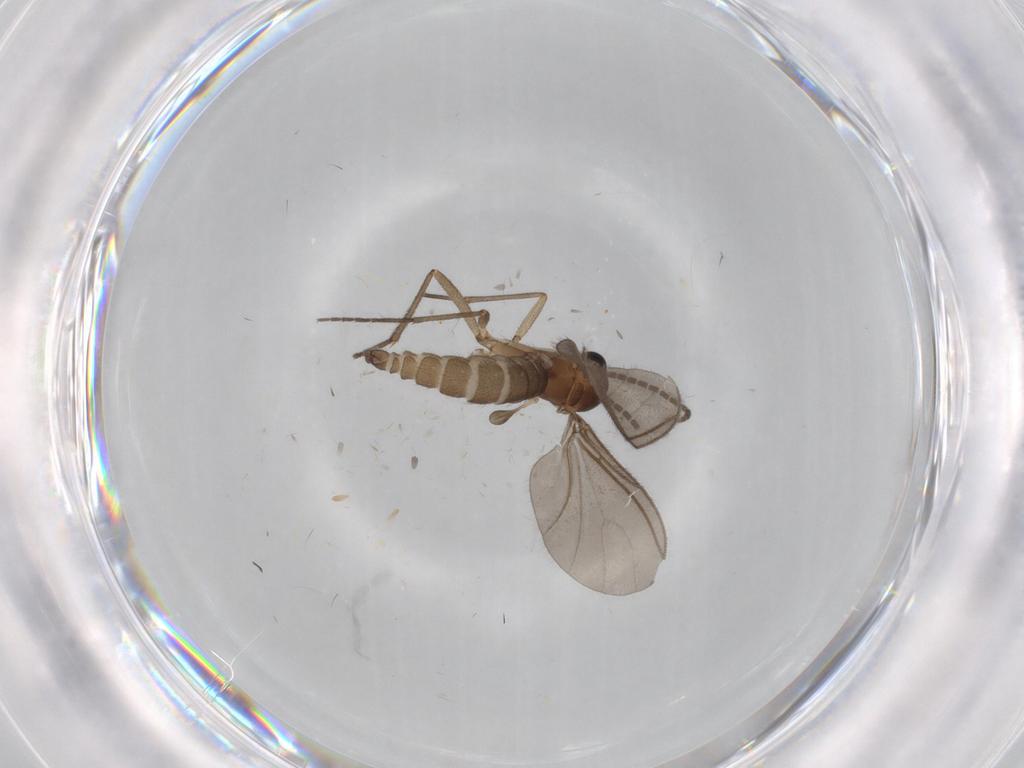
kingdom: Animalia
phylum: Arthropoda
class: Insecta
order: Diptera
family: Sciaridae
